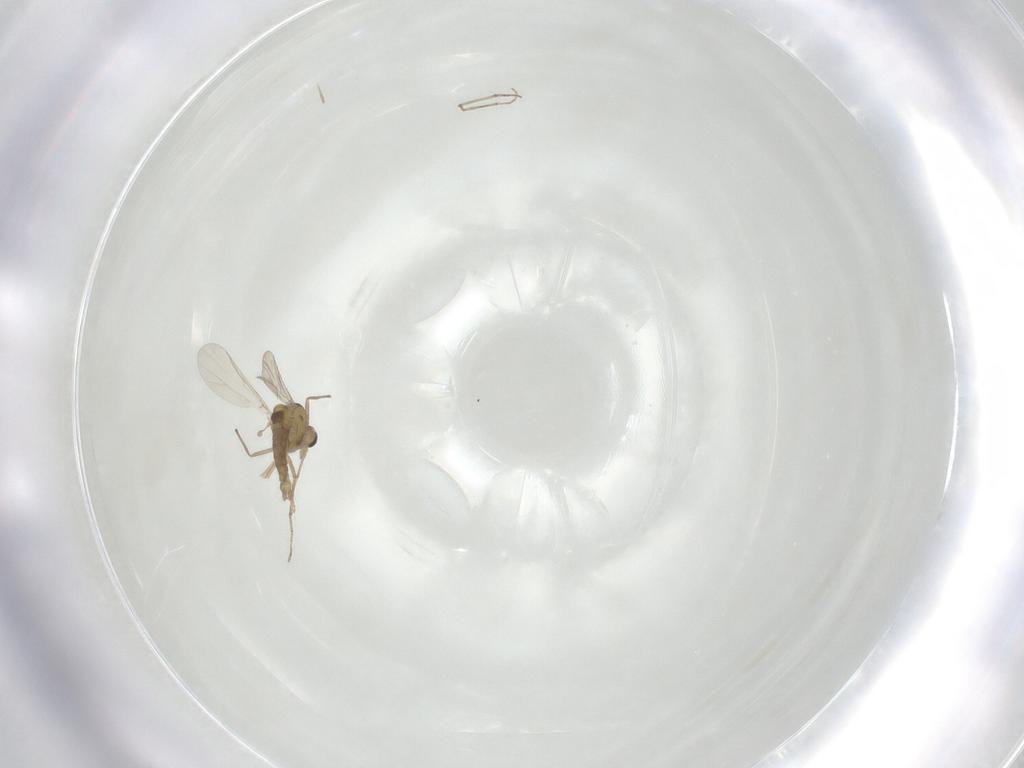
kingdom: Animalia
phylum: Arthropoda
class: Insecta
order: Diptera
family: Chironomidae
